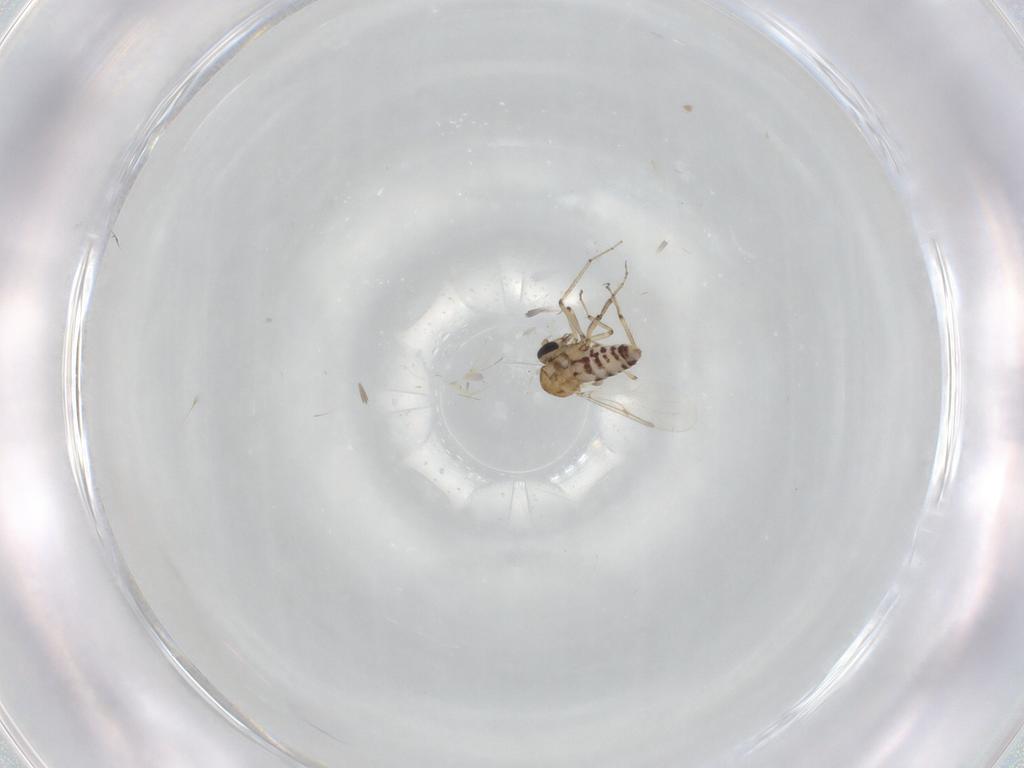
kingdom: Animalia
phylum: Arthropoda
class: Insecta
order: Diptera
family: Ceratopogonidae
